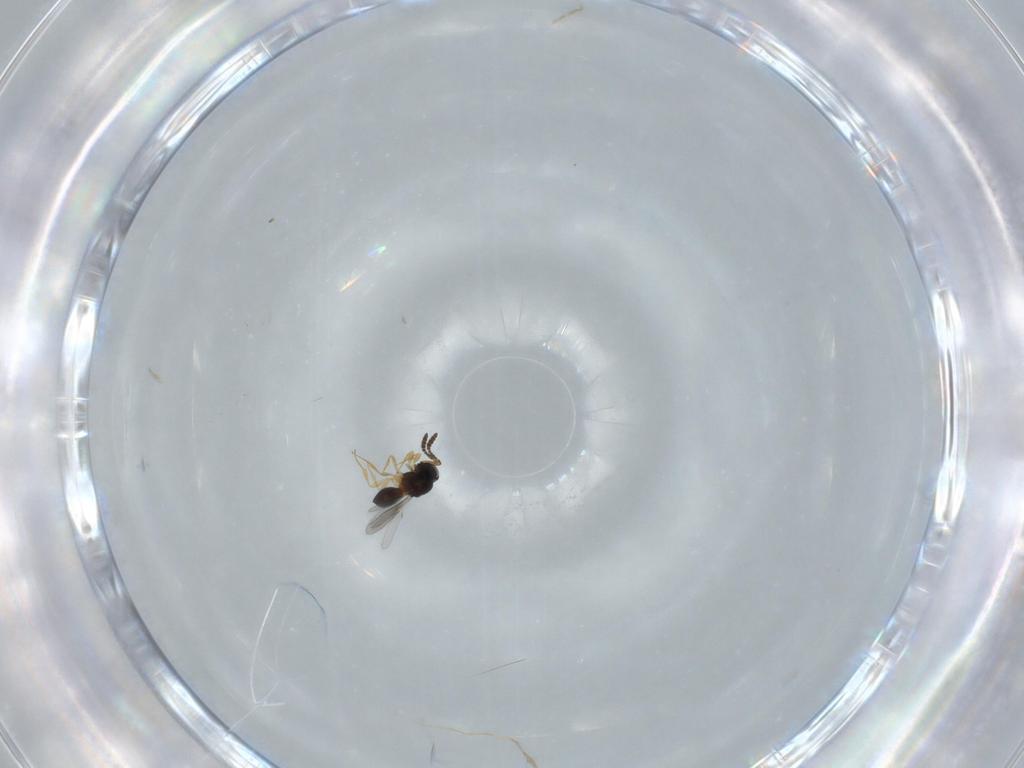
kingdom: Animalia
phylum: Arthropoda
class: Insecta
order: Hymenoptera
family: Scelionidae
